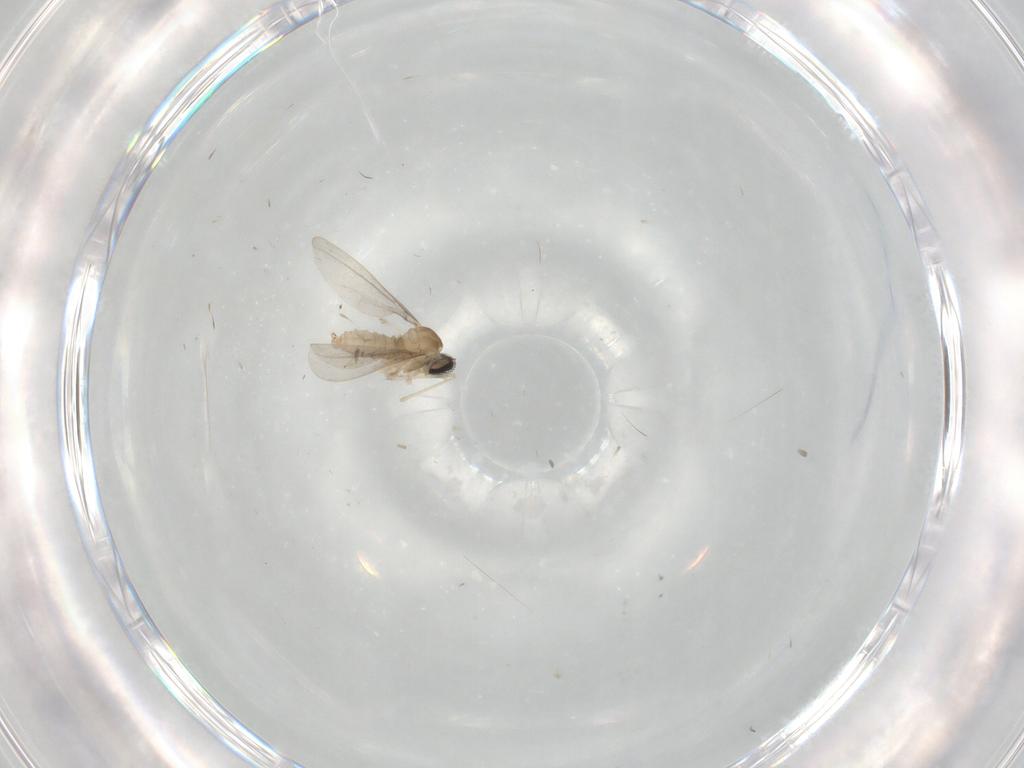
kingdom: Animalia
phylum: Arthropoda
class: Insecta
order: Diptera
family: Cecidomyiidae
